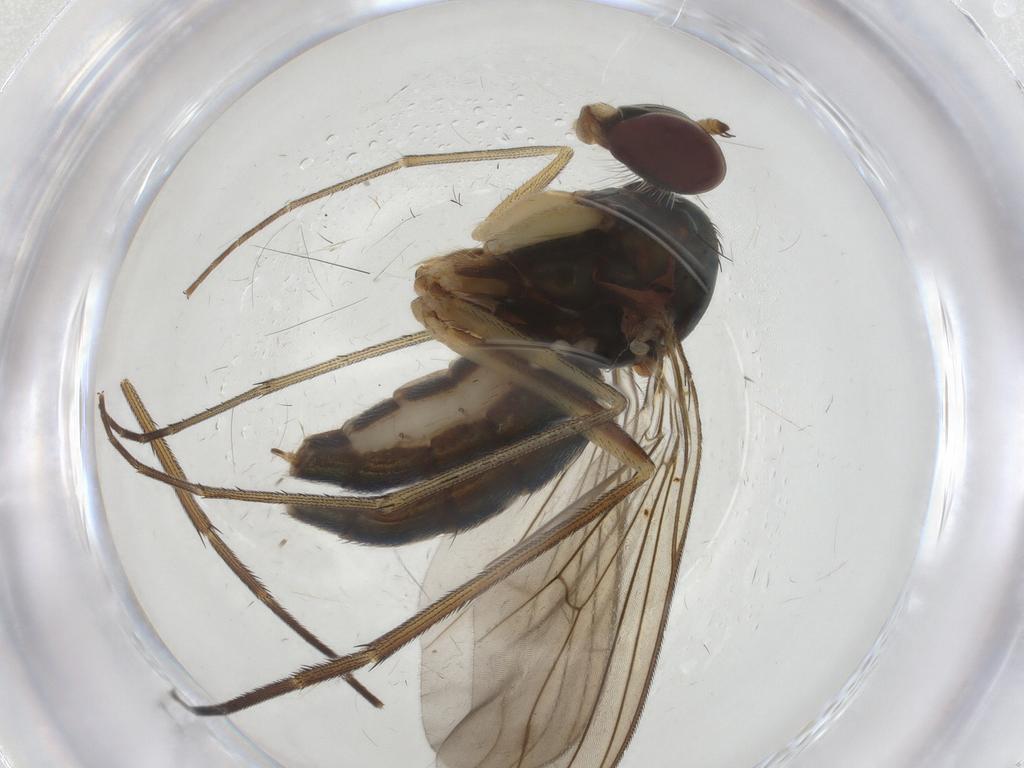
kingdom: Animalia
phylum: Arthropoda
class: Insecta
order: Diptera
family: Dolichopodidae
